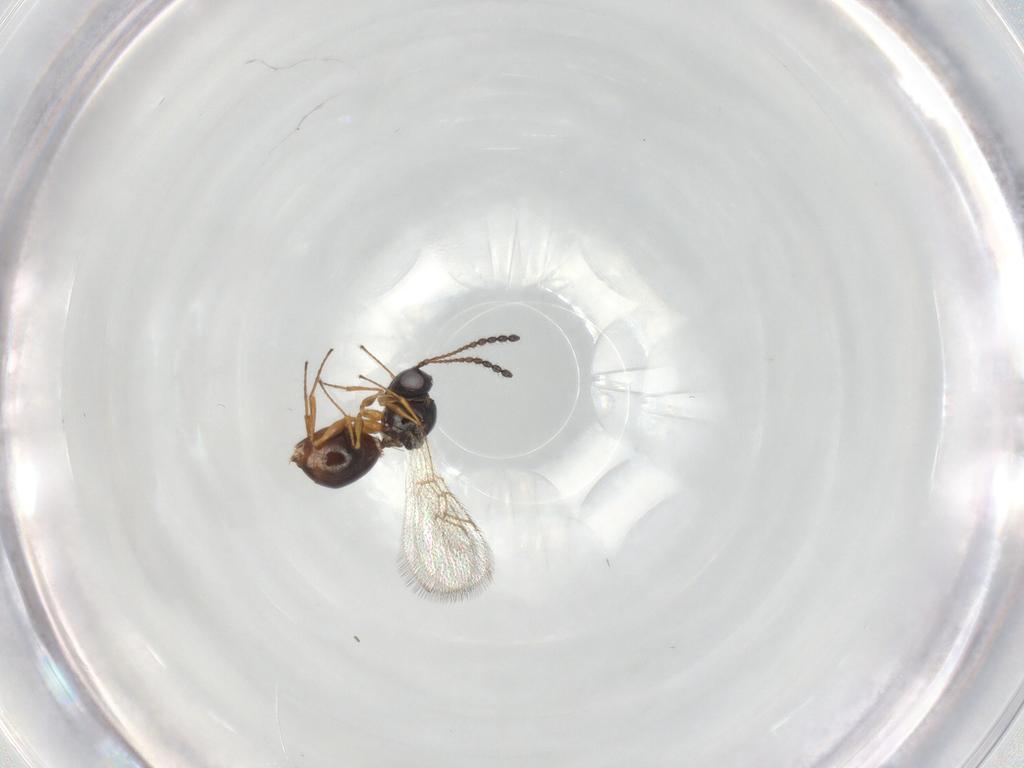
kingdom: Animalia
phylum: Arthropoda
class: Insecta
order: Hymenoptera
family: Figitidae
